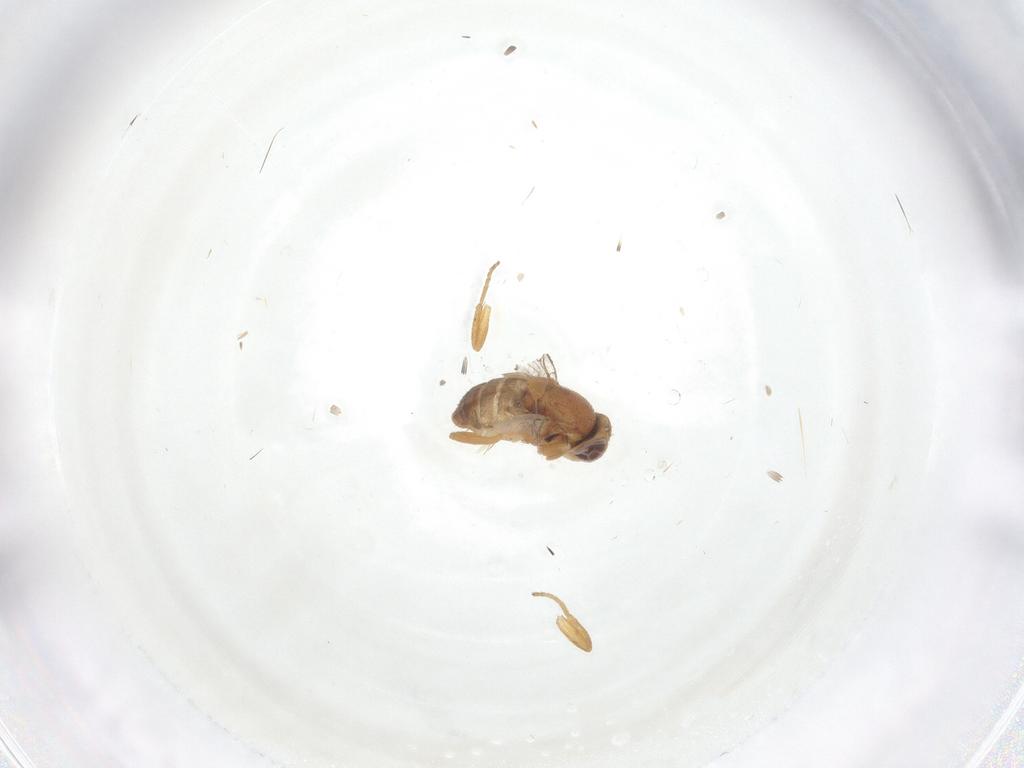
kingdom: Animalia
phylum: Arthropoda
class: Insecta
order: Diptera
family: Chloropidae
